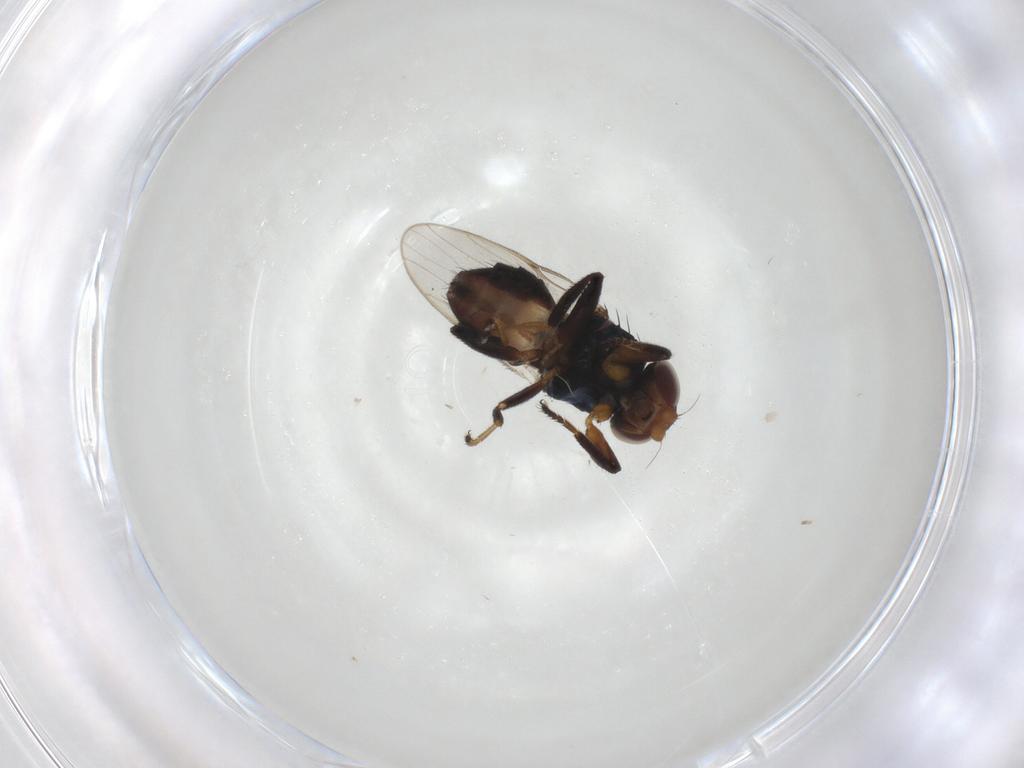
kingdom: Animalia
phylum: Arthropoda
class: Insecta
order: Diptera
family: Chloropidae
